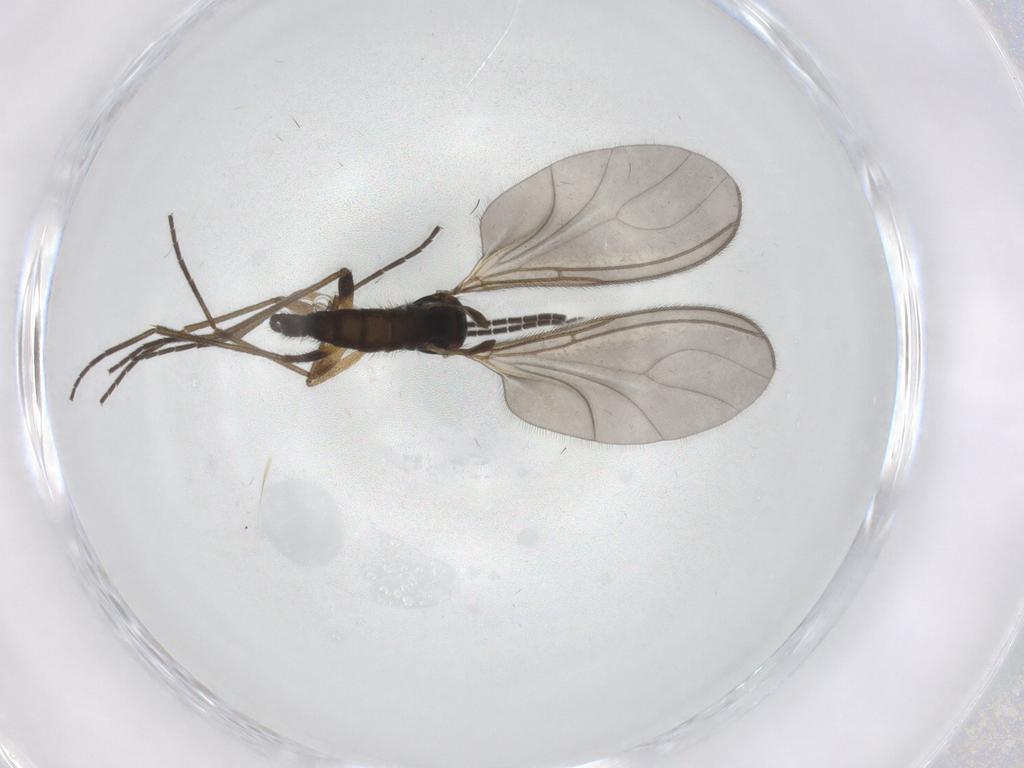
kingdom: Animalia
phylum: Arthropoda
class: Insecta
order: Diptera
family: Sciaridae
